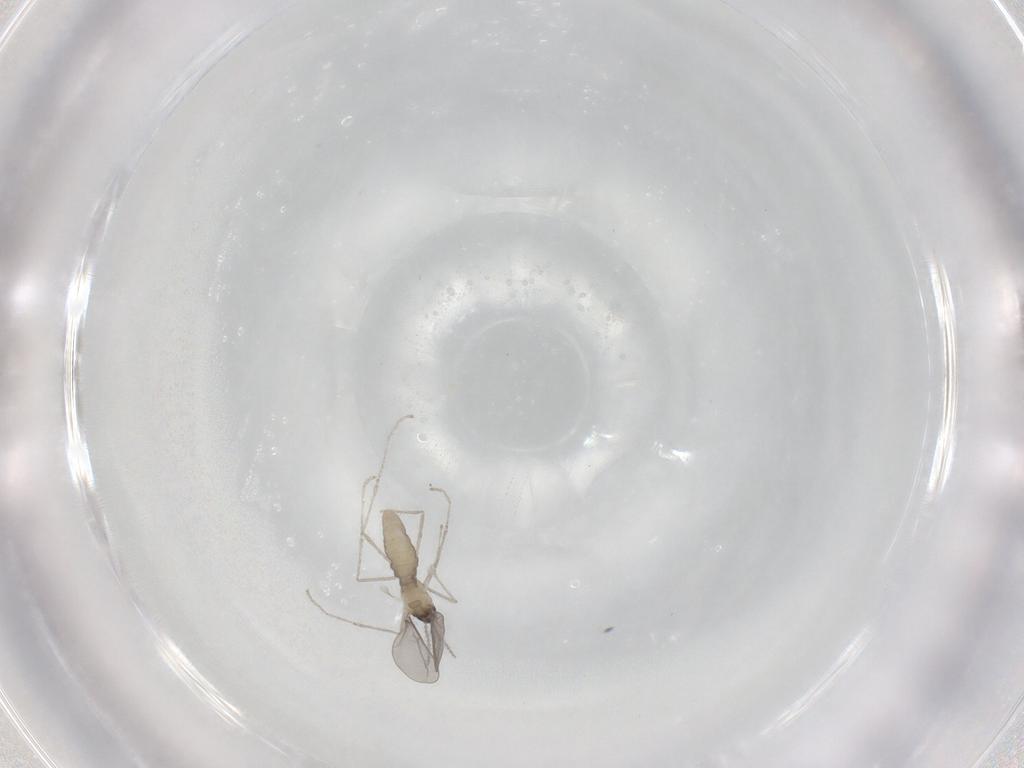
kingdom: Animalia
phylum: Arthropoda
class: Insecta
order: Diptera
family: Cecidomyiidae
